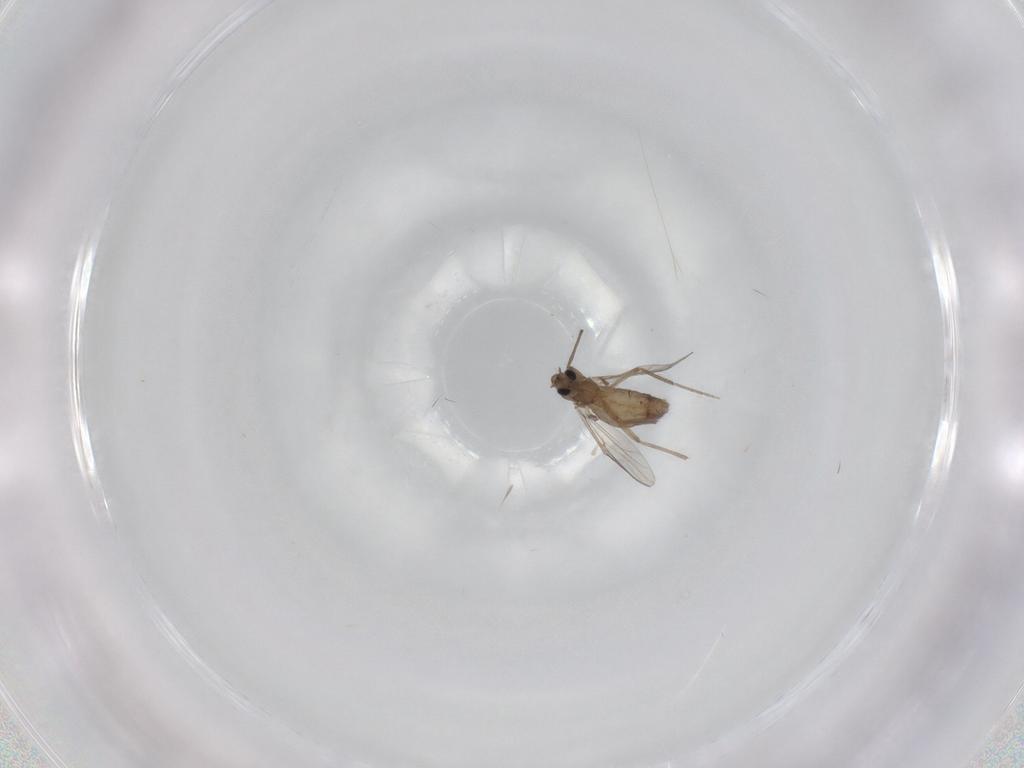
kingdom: Animalia
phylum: Arthropoda
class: Insecta
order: Diptera
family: Chironomidae
